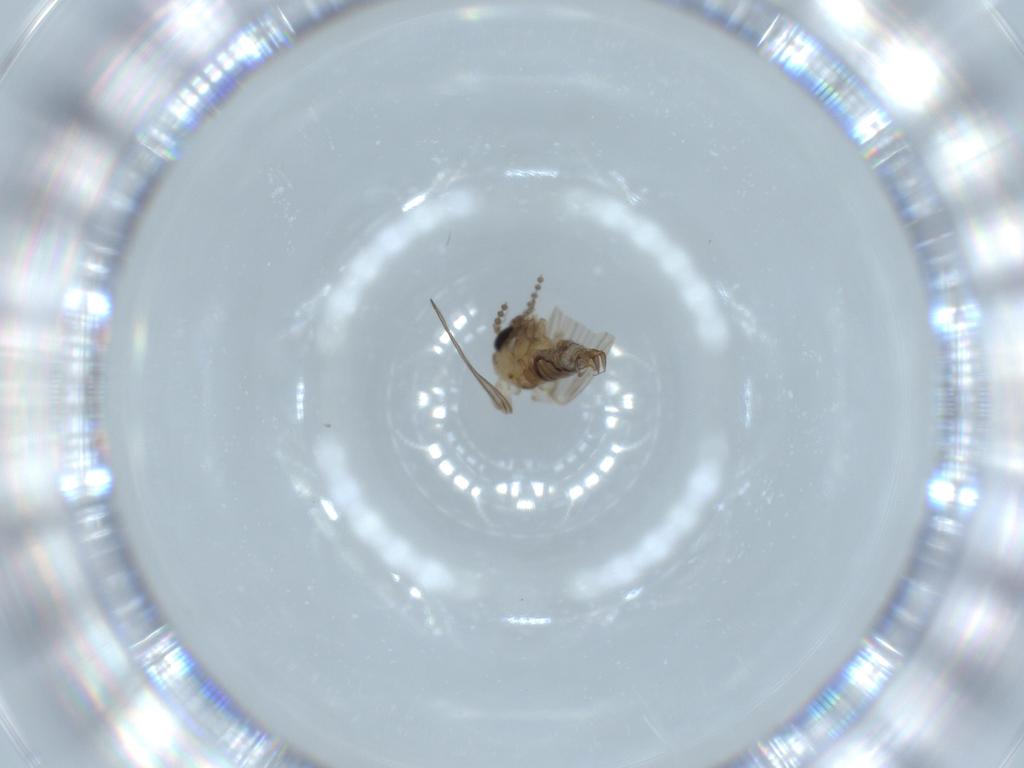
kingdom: Animalia
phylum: Arthropoda
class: Insecta
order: Diptera
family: Psychodidae
